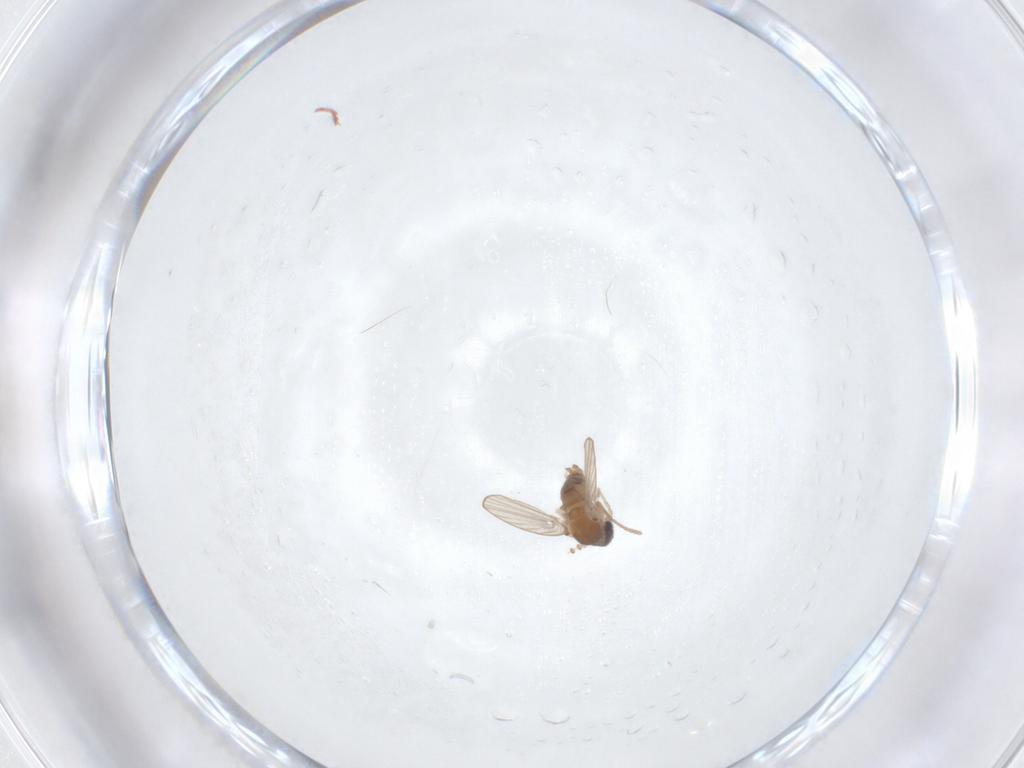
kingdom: Animalia
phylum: Arthropoda
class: Insecta
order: Diptera
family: Psychodidae
